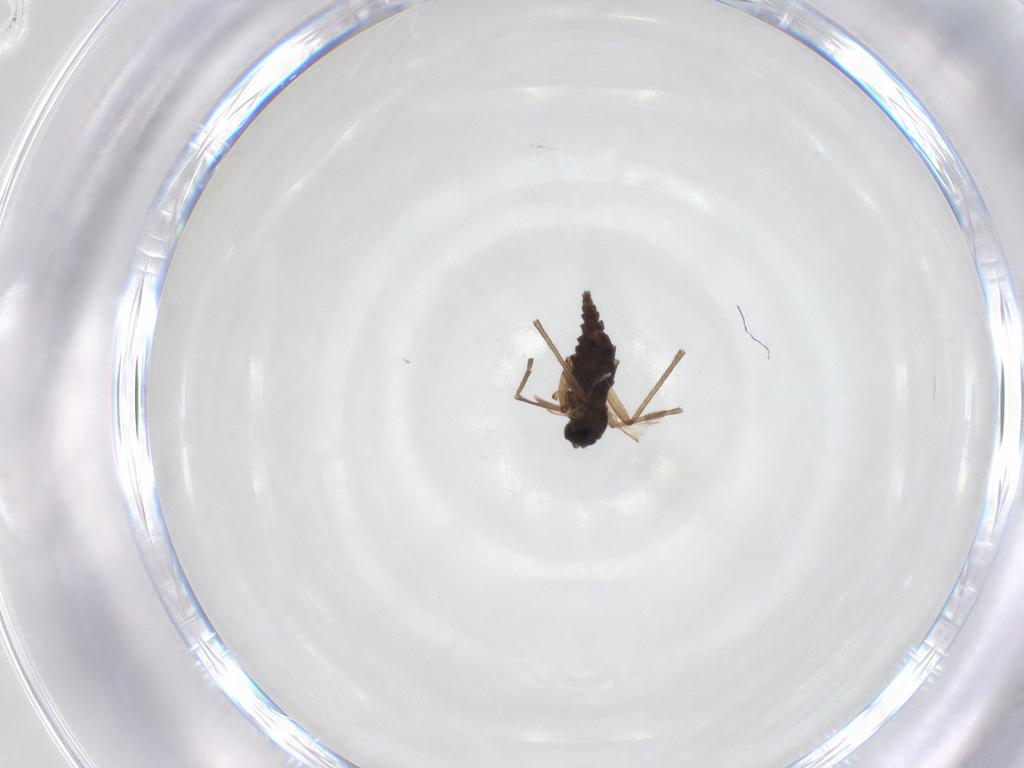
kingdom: Animalia
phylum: Arthropoda
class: Insecta
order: Diptera
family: Sciaridae
